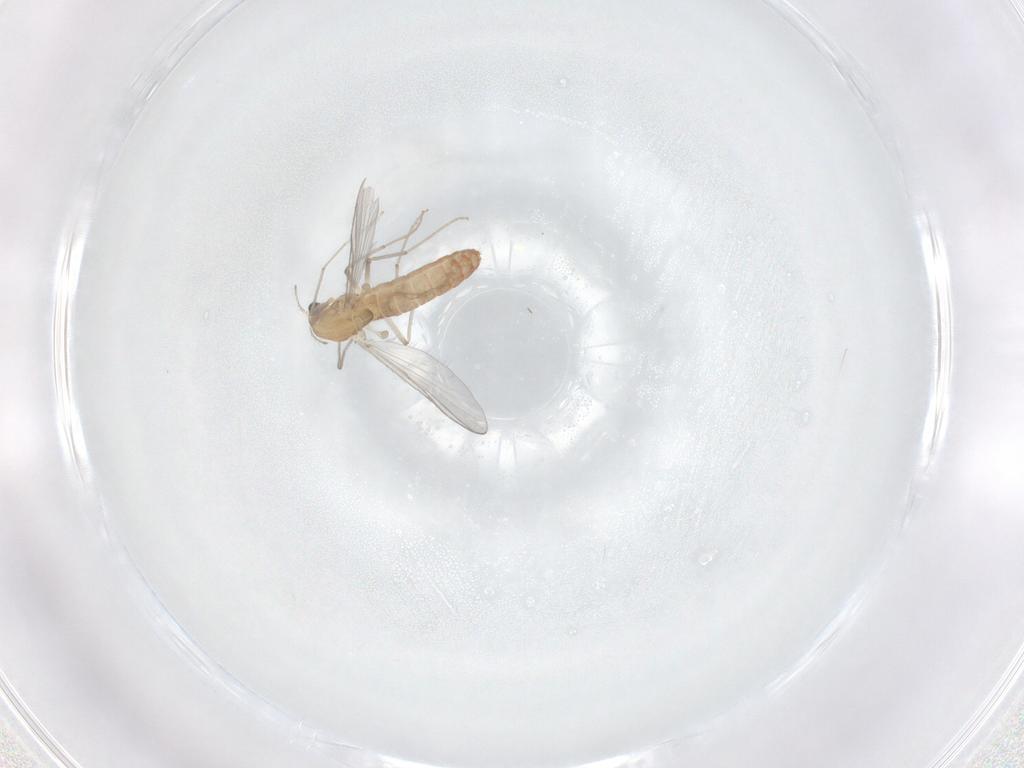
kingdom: Animalia
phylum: Arthropoda
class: Insecta
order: Diptera
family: Chironomidae
